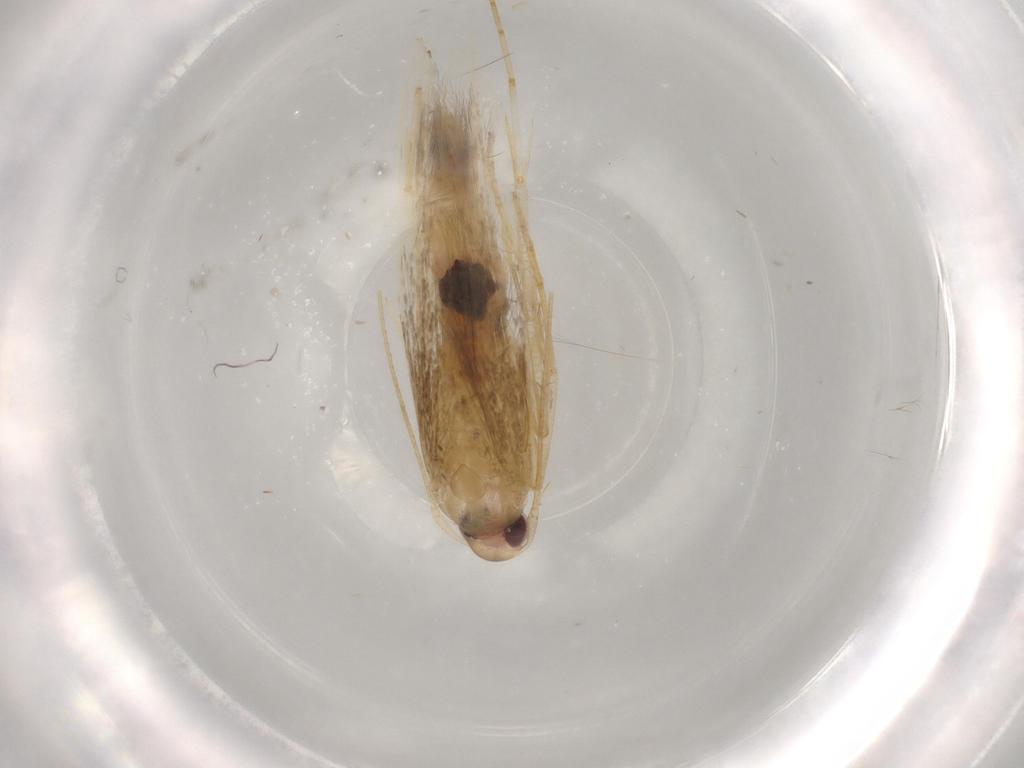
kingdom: Animalia
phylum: Arthropoda
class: Insecta
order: Lepidoptera
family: Cosmopterigidae
